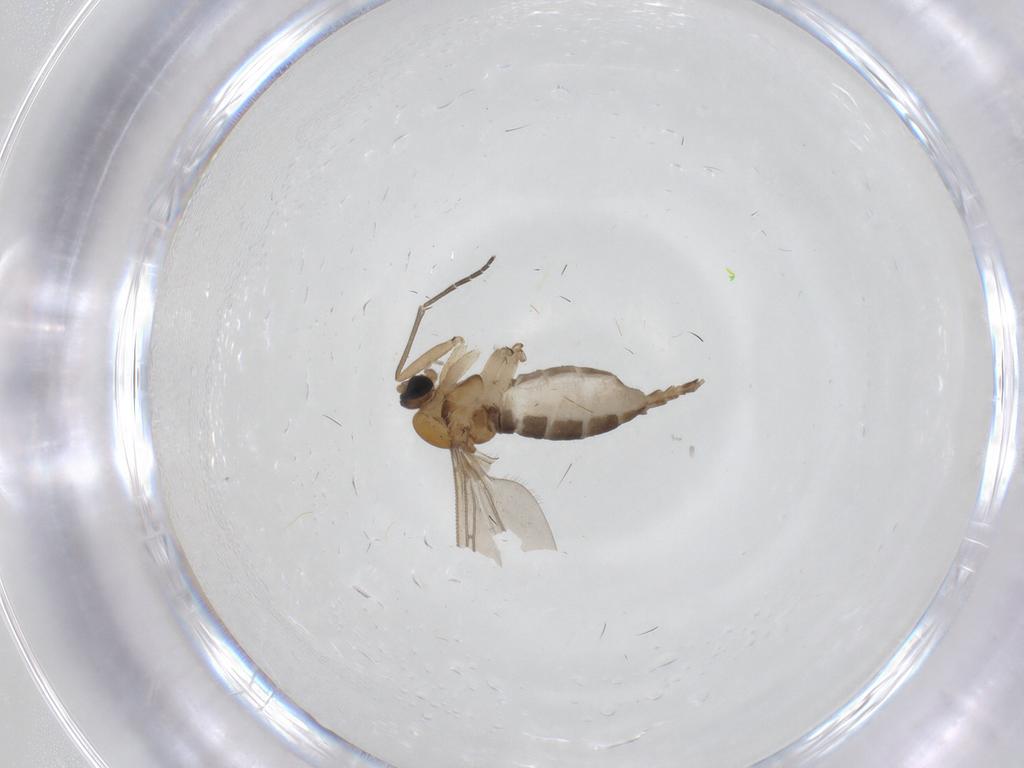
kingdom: Animalia
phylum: Arthropoda
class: Insecta
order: Diptera
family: Sciaridae
